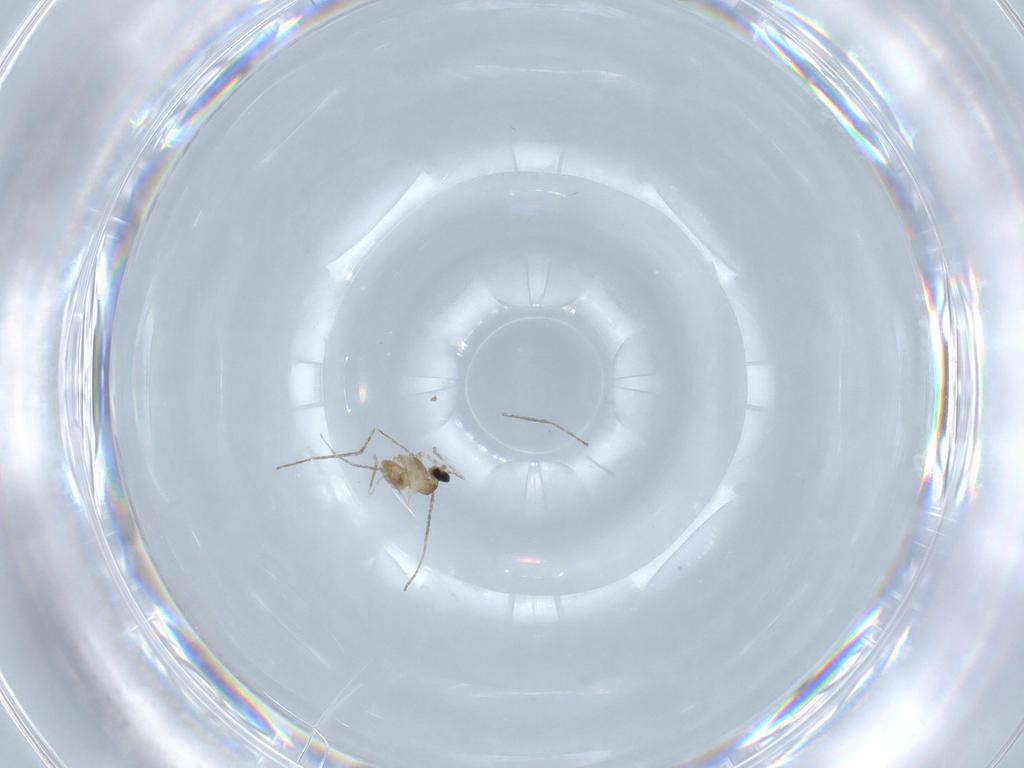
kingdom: Animalia
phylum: Arthropoda
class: Insecta
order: Diptera
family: Cecidomyiidae
